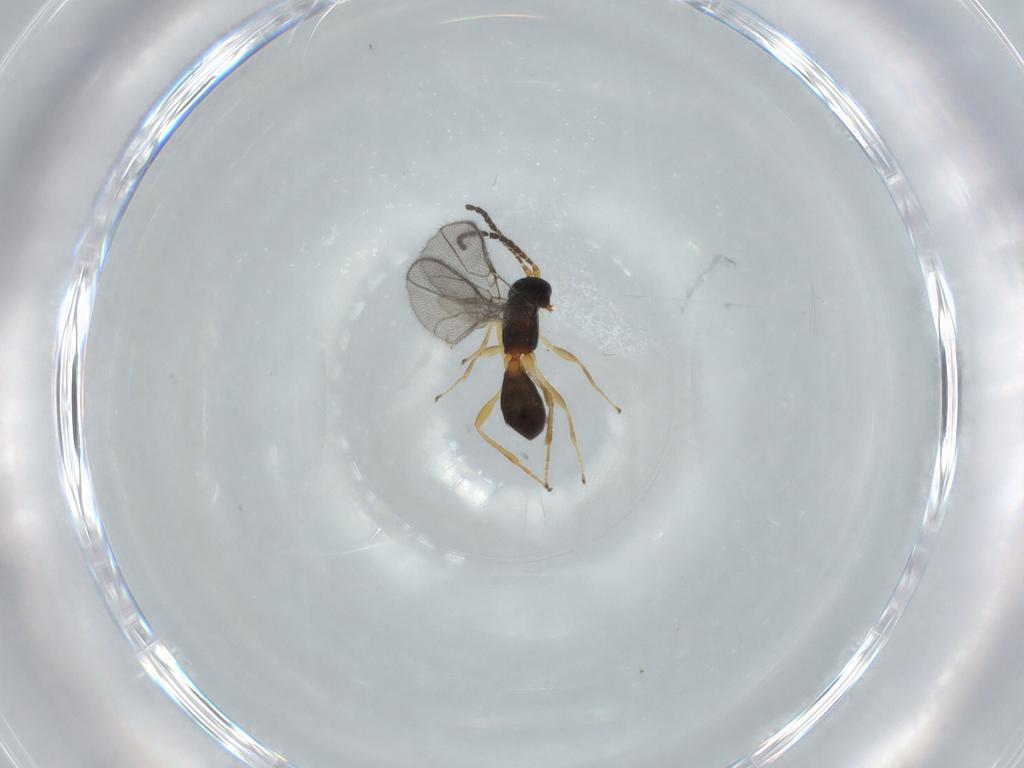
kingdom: Animalia
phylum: Arthropoda
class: Insecta
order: Hymenoptera
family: Braconidae
